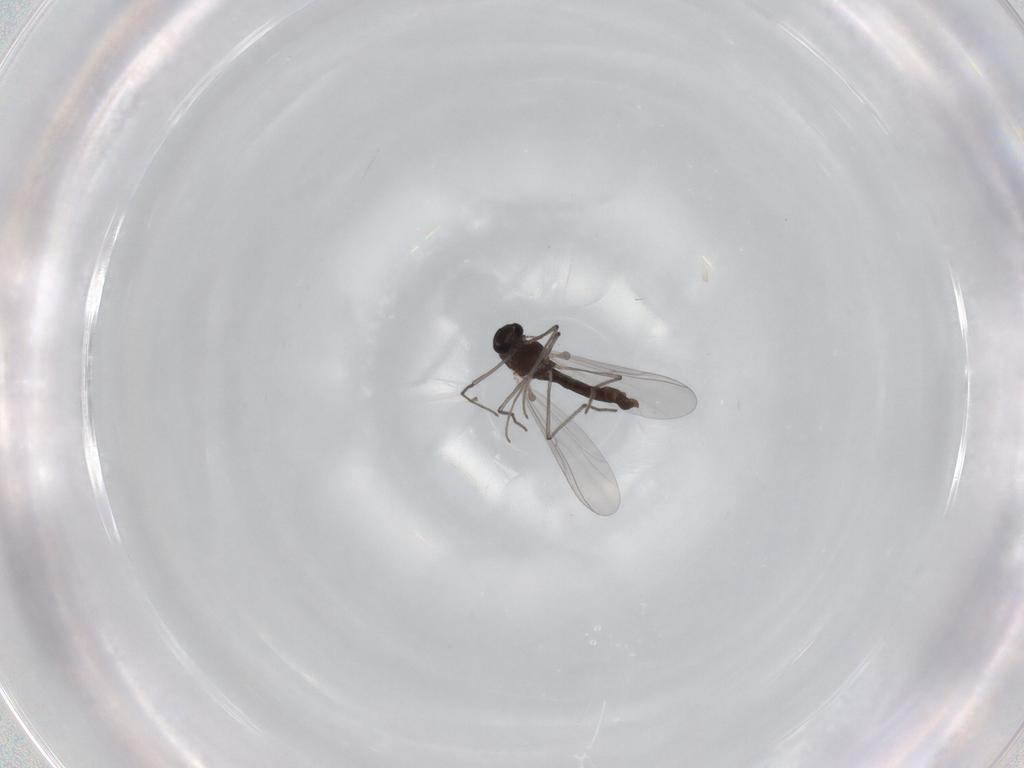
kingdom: Animalia
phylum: Arthropoda
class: Insecta
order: Diptera
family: Chironomidae
